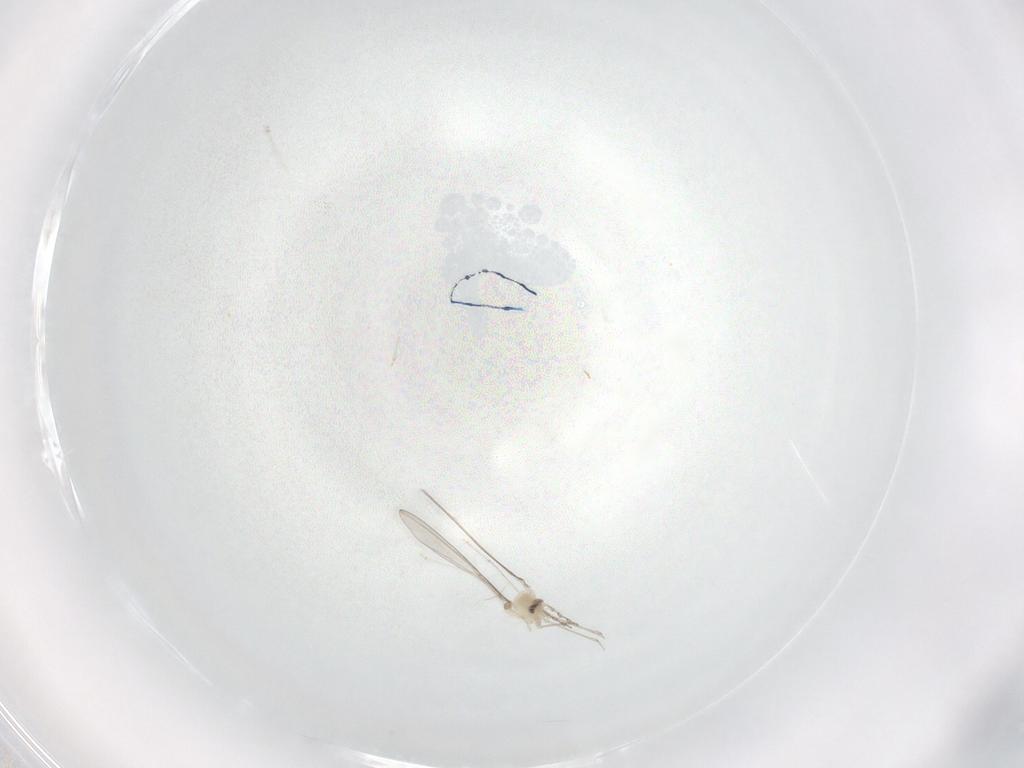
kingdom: Animalia
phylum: Arthropoda
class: Insecta
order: Diptera
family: Cecidomyiidae
